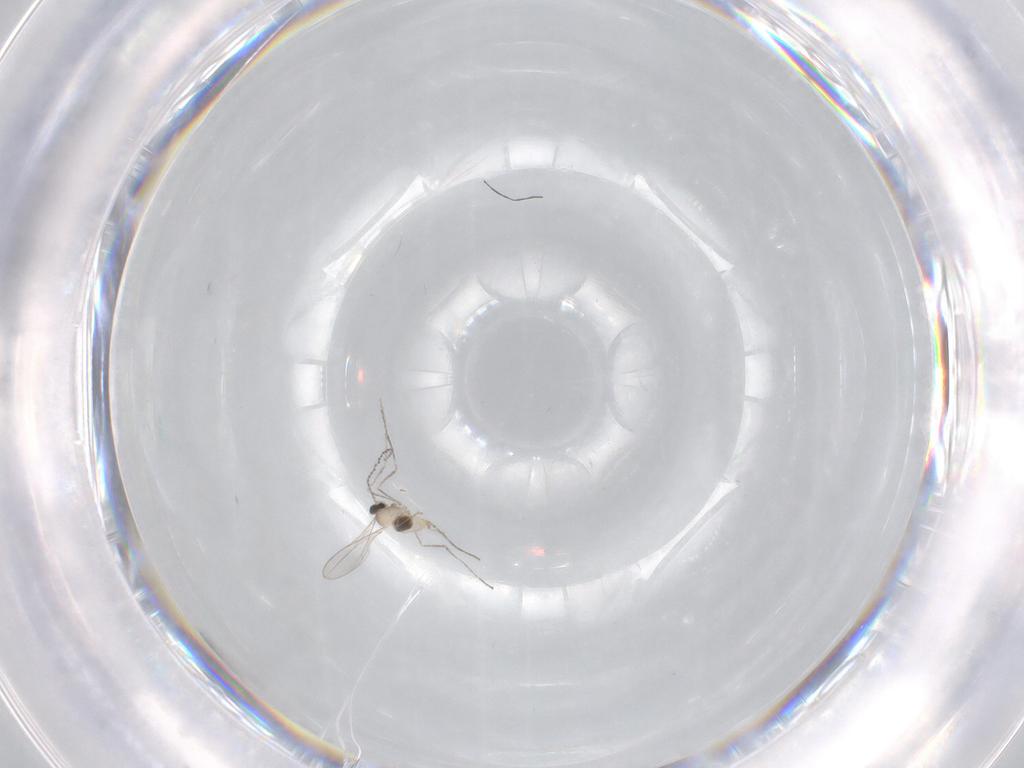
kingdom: Animalia
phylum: Arthropoda
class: Insecta
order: Diptera
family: Cecidomyiidae
